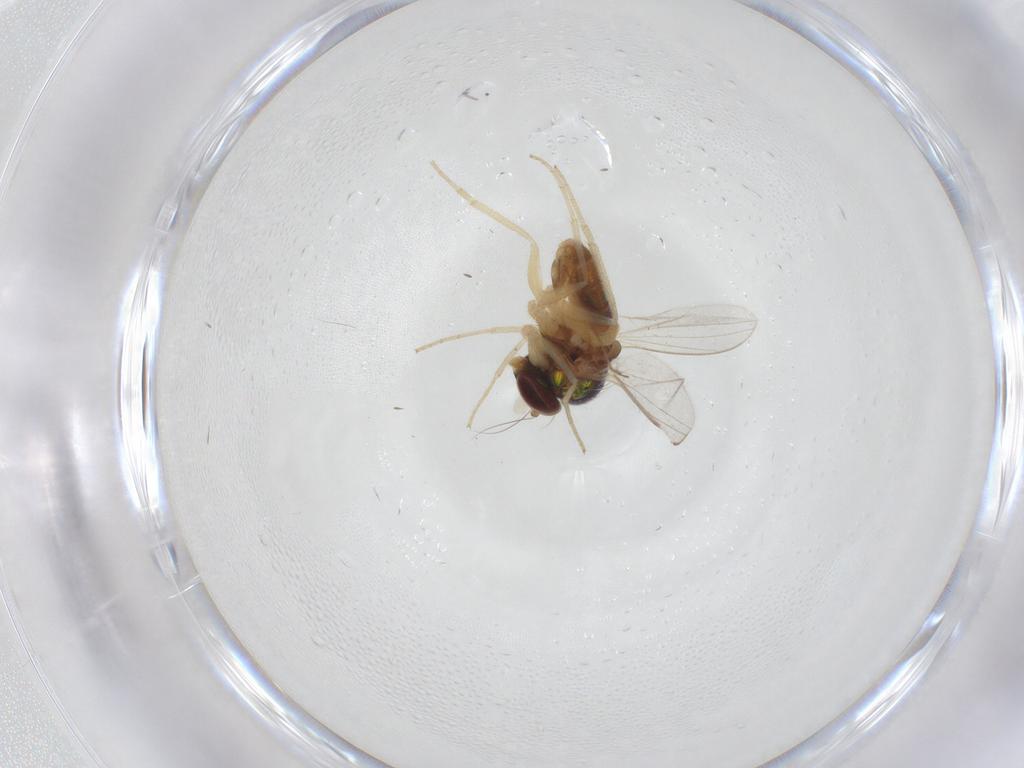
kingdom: Animalia
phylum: Arthropoda
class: Insecta
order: Diptera
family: Dolichopodidae
